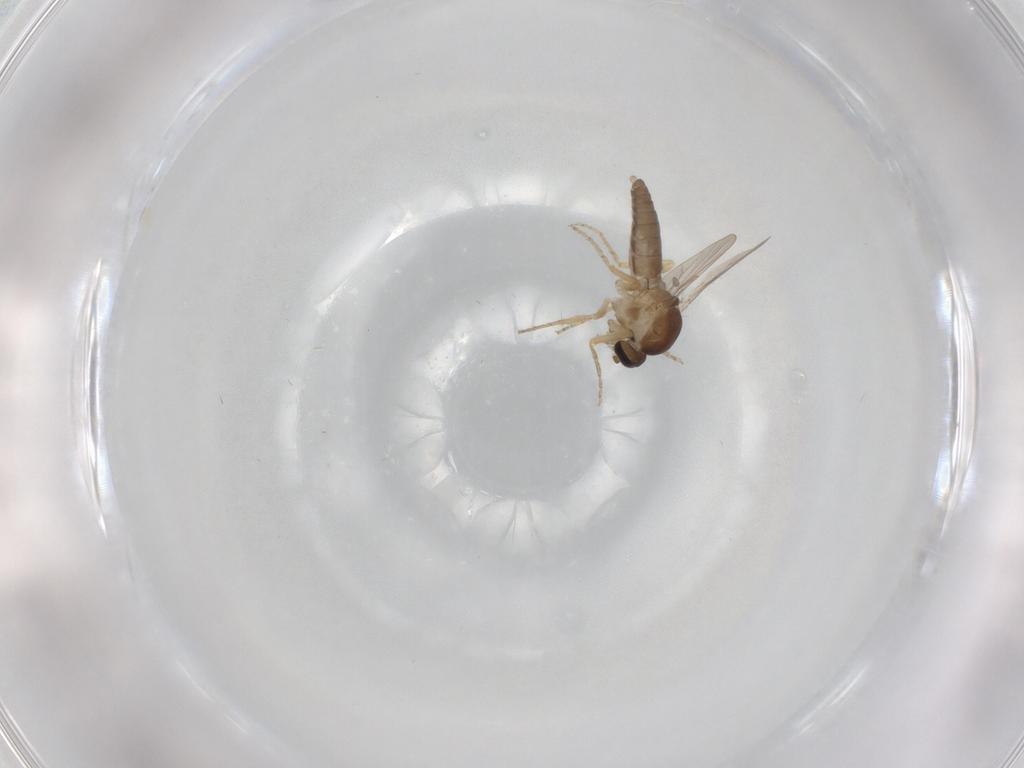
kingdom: Animalia
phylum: Arthropoda
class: Insecta
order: Diptera
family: Ceratopogonidae
